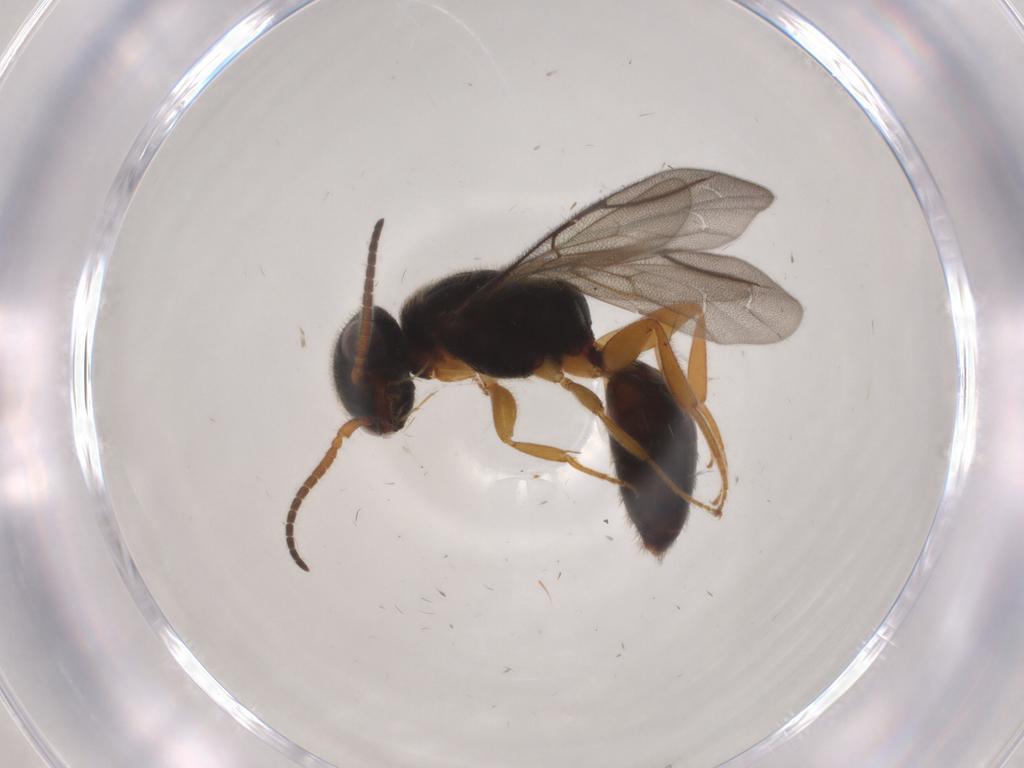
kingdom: Animalia
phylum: Arthropoda
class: Insecta
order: Hymenoptera
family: Bethylidae
